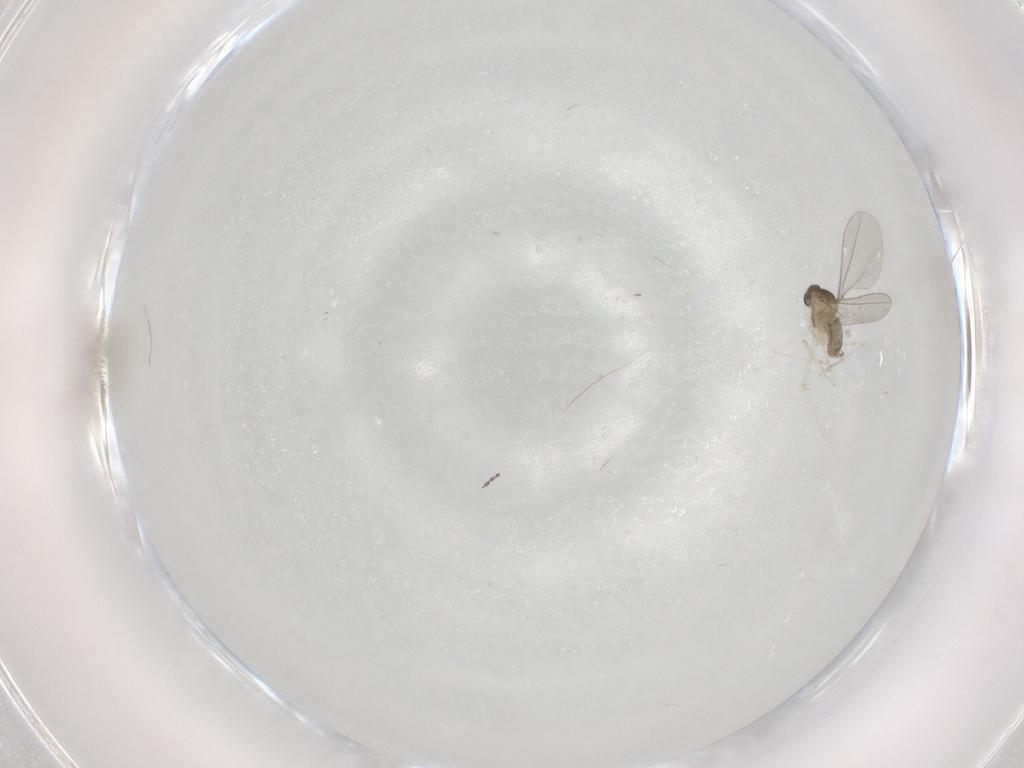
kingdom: Animalia
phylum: Arthropoda
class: Insecta
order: Diptera
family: Cecidomyiidae
